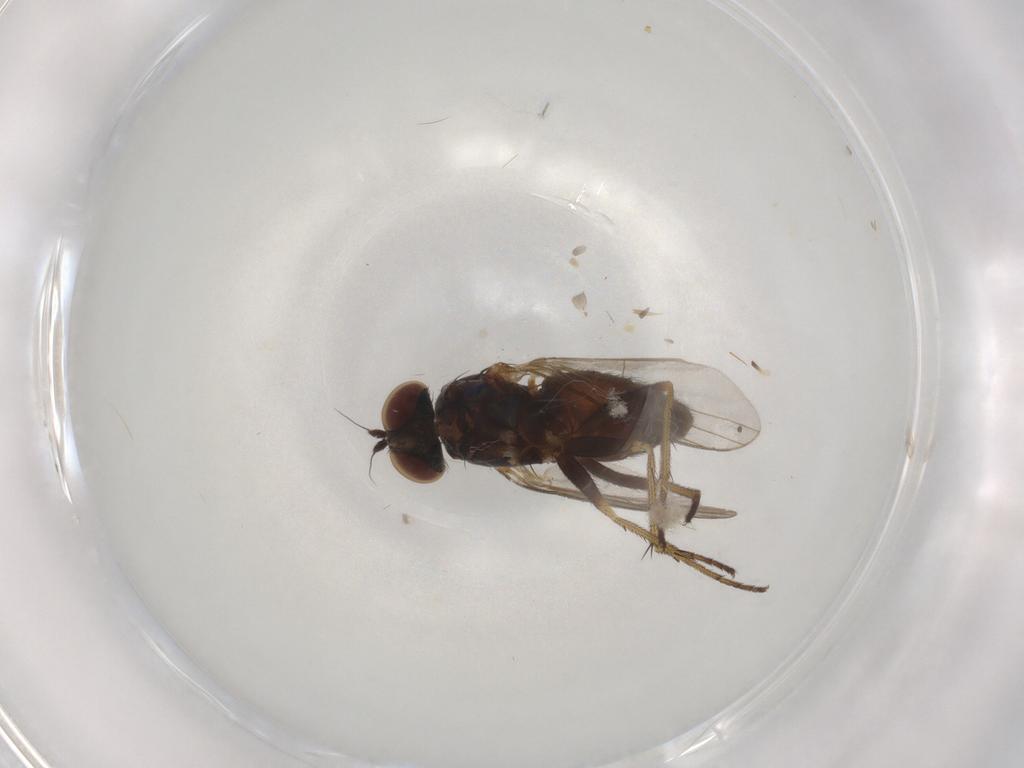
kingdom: Animalia
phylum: Arthropoda
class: Insecta
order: Diptera
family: Dolichopodidae
